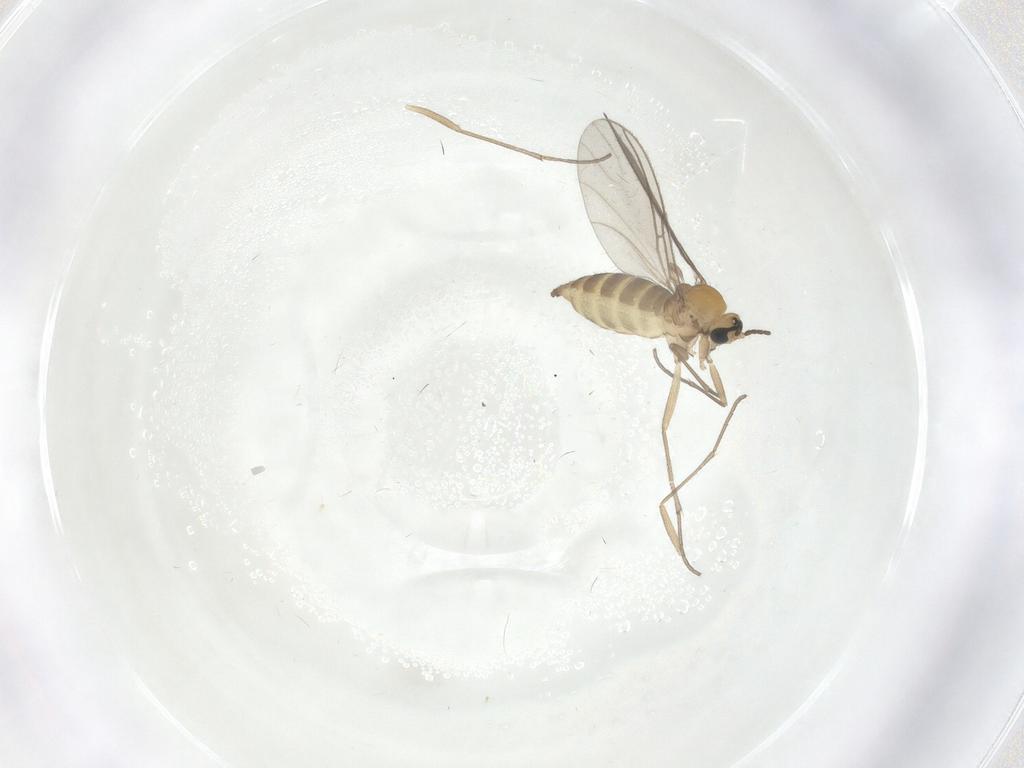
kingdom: Animalia
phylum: Arthropoda
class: Insecta
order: Diptera
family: Sciaridae
